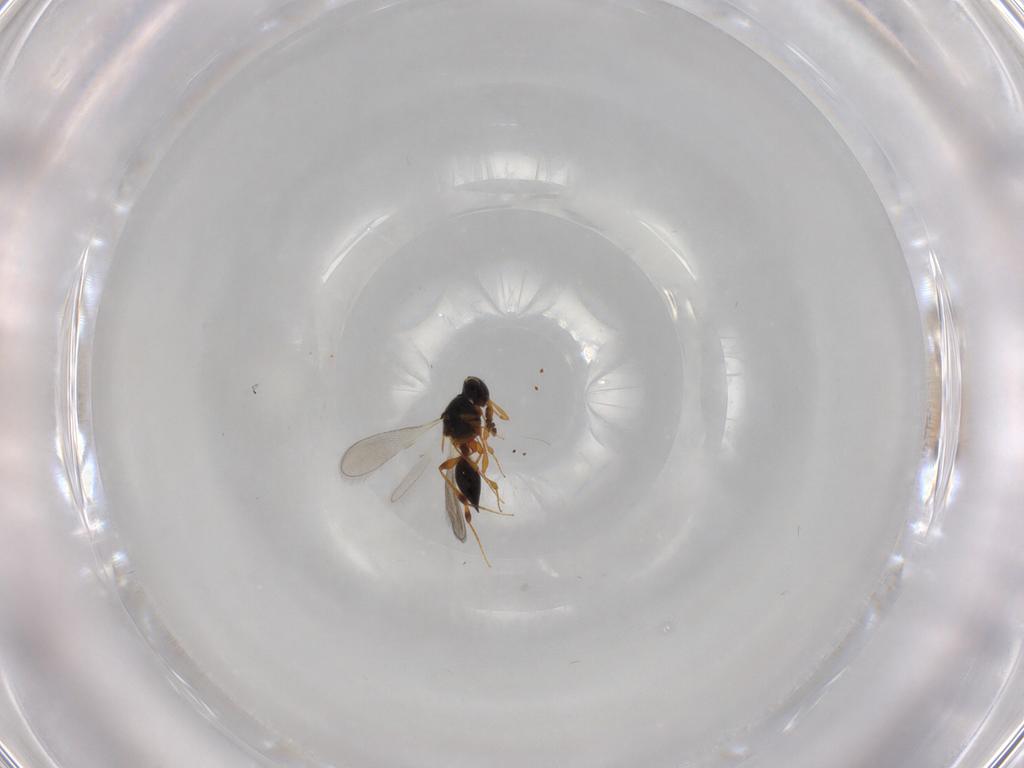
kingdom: Animalia
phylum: Arthropoda
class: Insecta
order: Hymenoptera
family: Platygastridae
